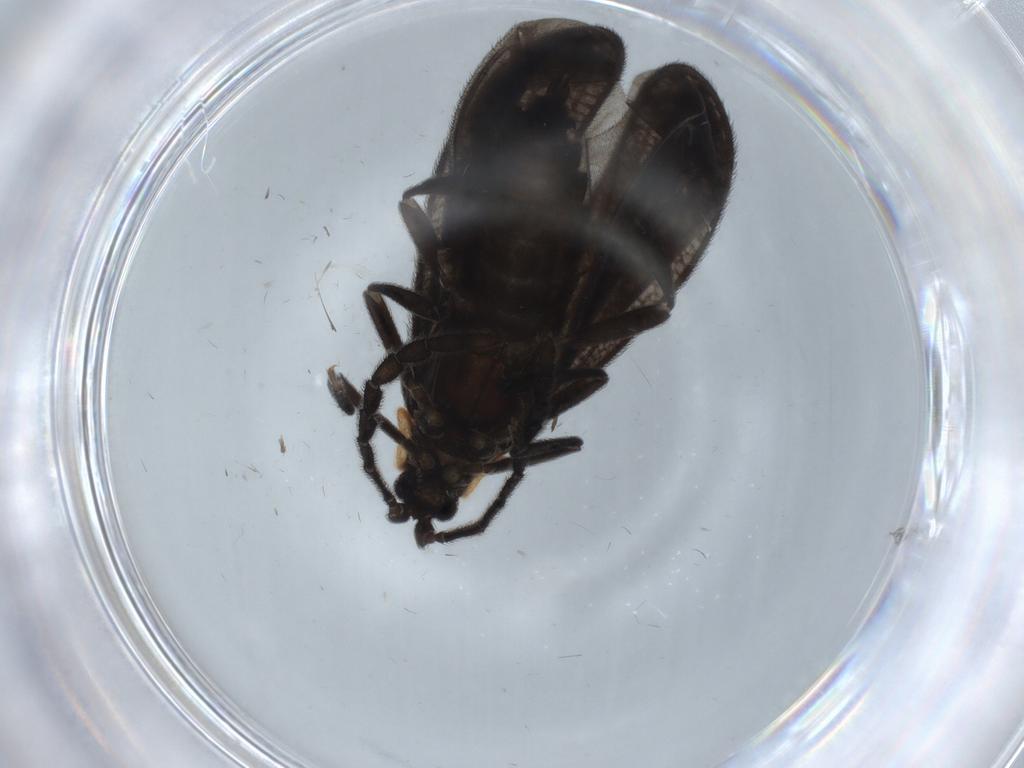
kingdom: Animalia
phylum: Arthropoda
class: Insecta
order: Coleoptera
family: Lycidae
